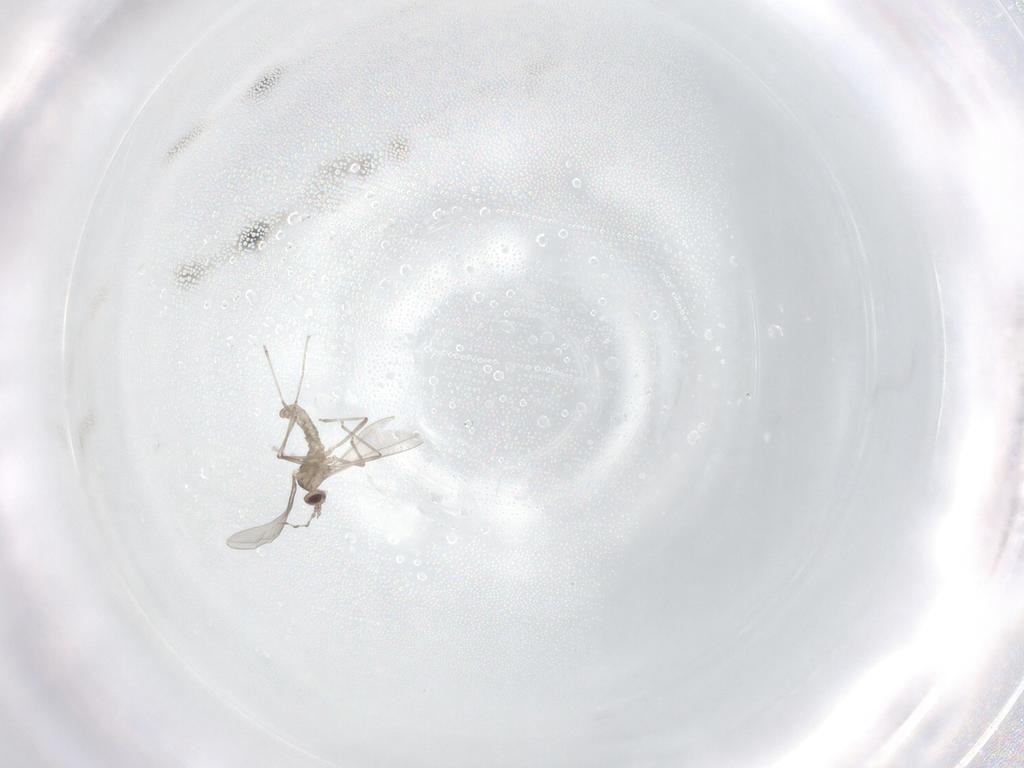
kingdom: Animalia
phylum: Arthropoda
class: Insecta
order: Diptera
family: Cecidomyiidae
